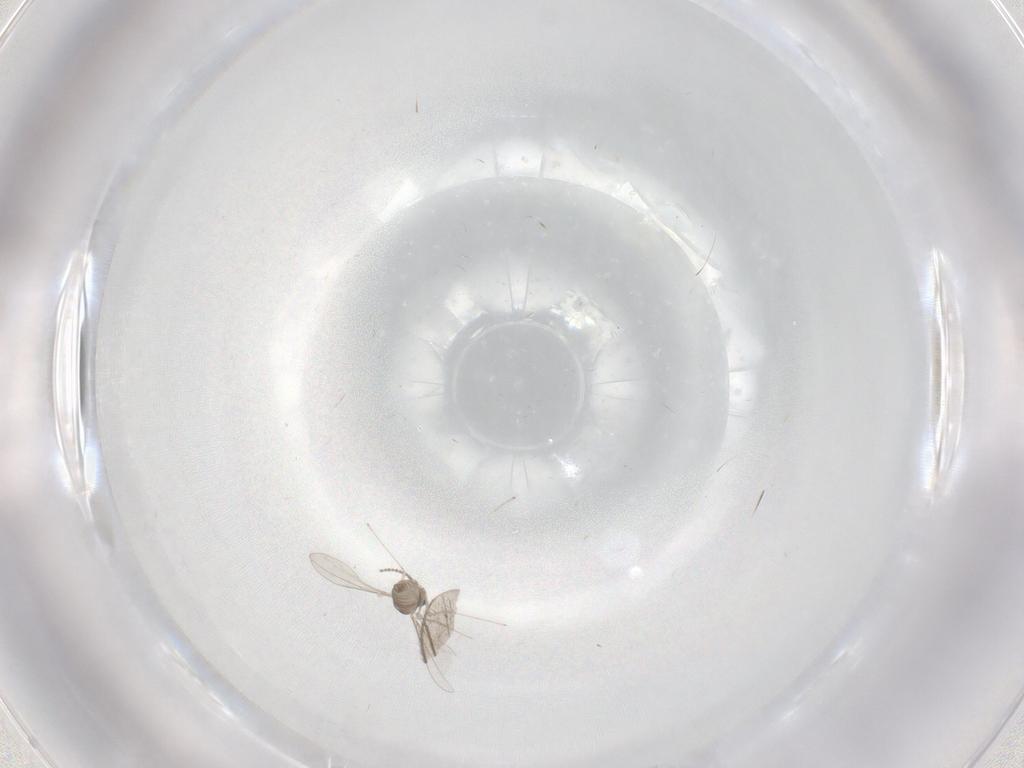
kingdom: Animalia
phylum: Arthropoda
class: Insecta
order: Diptera
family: Cecidomyiidae
